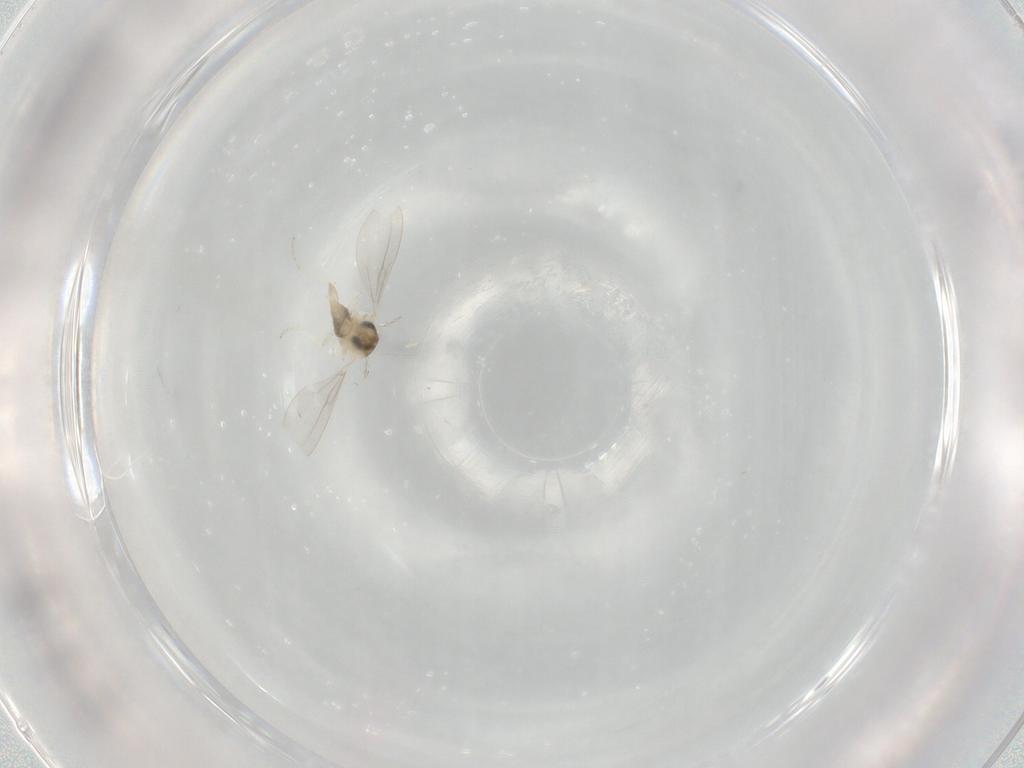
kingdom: Animalia
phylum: Arthropoda
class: Insecta
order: Diptera
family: Cecidomyiidae
